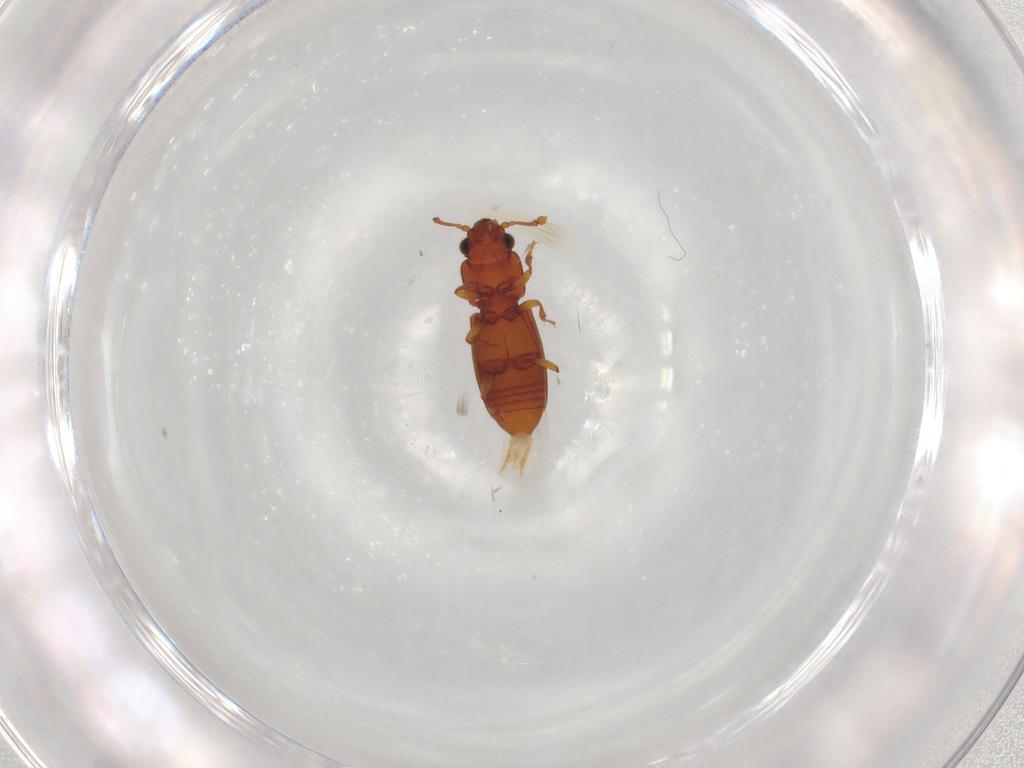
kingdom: Animalia
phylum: Arthropoda
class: Insecta
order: Coleoptera
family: Monotomidae
